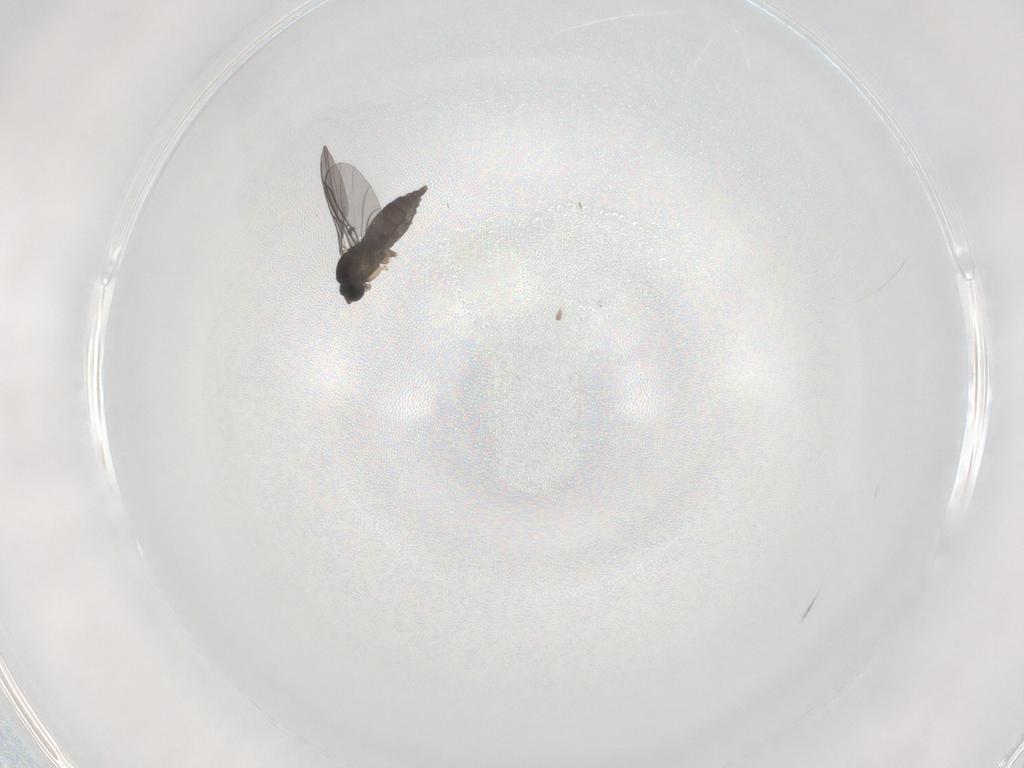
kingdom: Animalia
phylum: Arthropoda
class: Insecta
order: Diptera
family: Sciaridae
